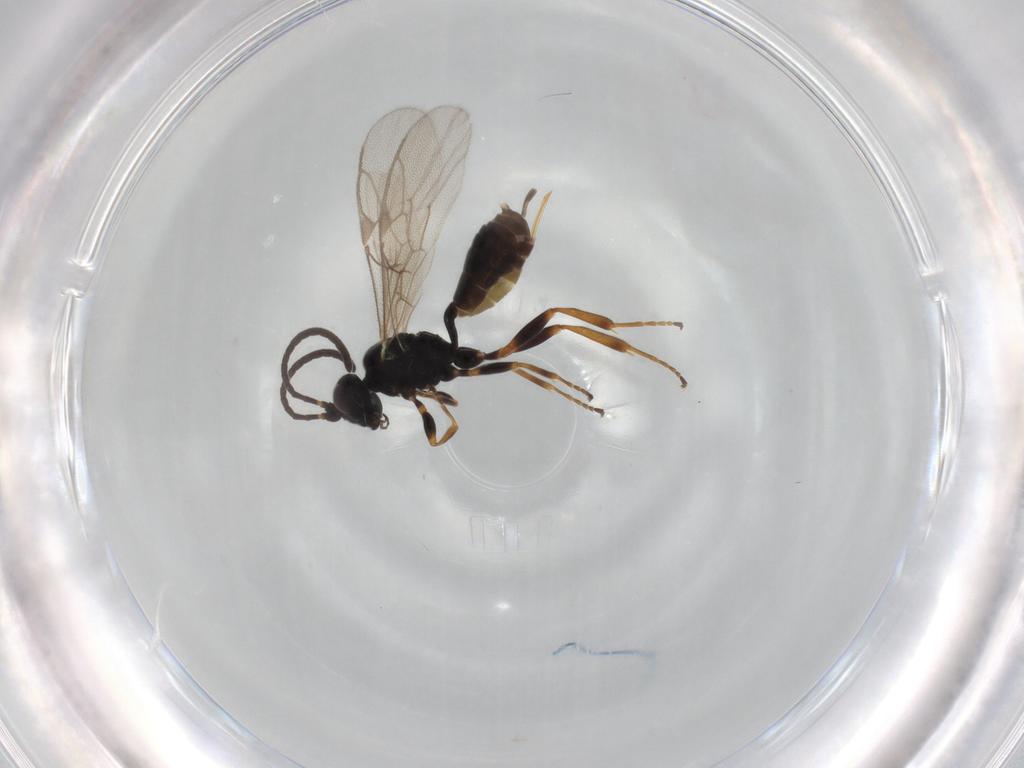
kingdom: Animalia
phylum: Arthropoda
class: Insecta
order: Hymenoptera
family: Ichneumonidae
